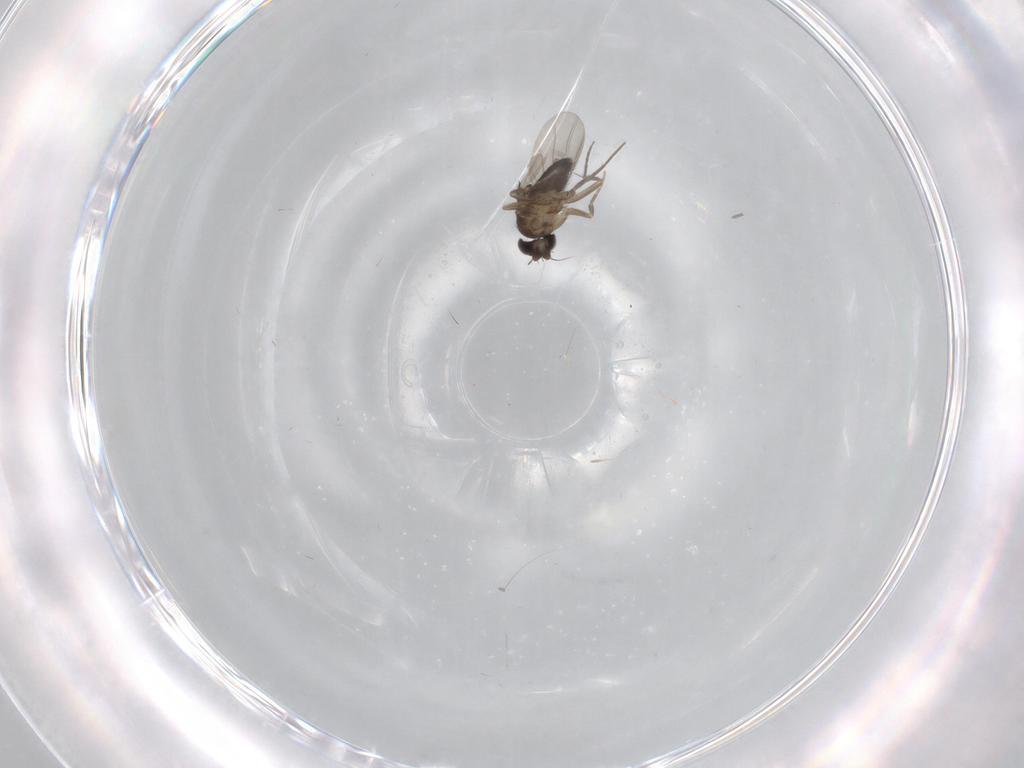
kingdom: Animalia
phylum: Arthropoda
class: Insecta
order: Diptera
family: Phoridae
